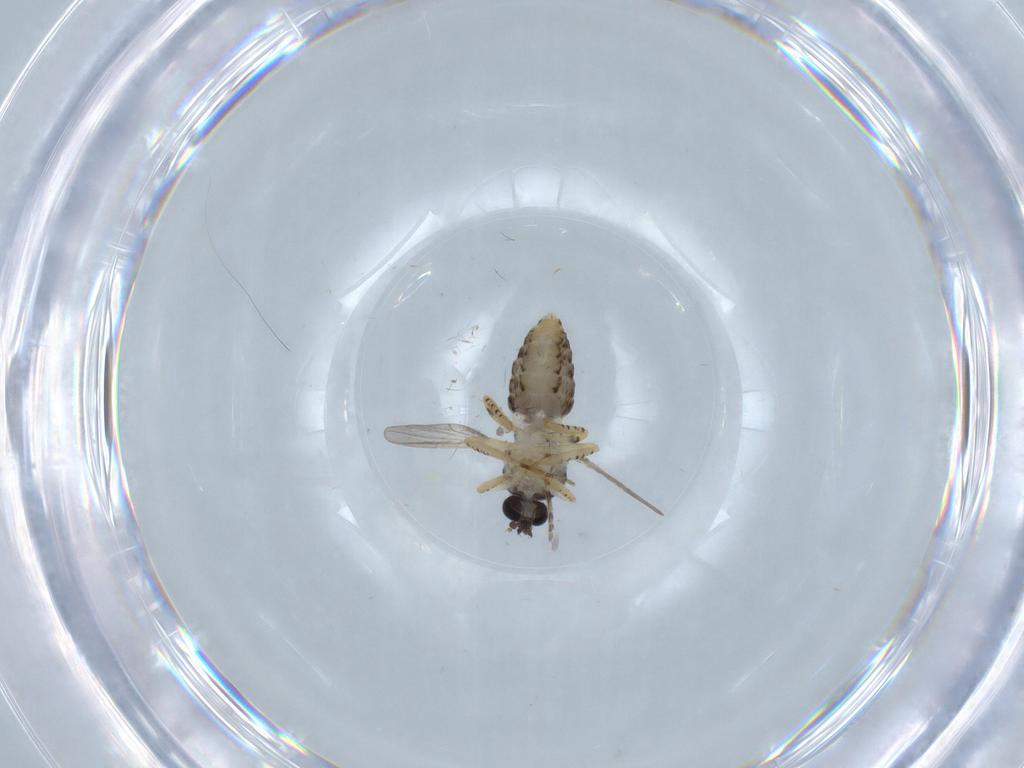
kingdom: Animalia
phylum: Arthropoda
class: Insecta
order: Diptera
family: Ceratopogonidae
